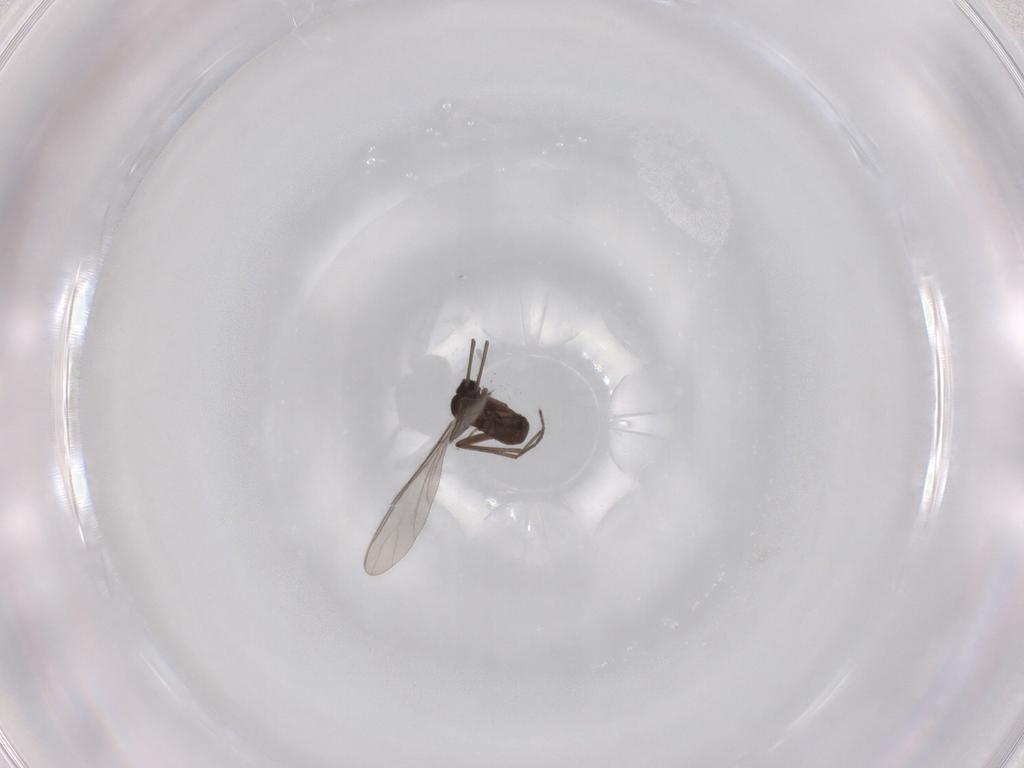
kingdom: Animalia
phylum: Arthropoda
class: Insecta
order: Diptera
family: Sciaridae
